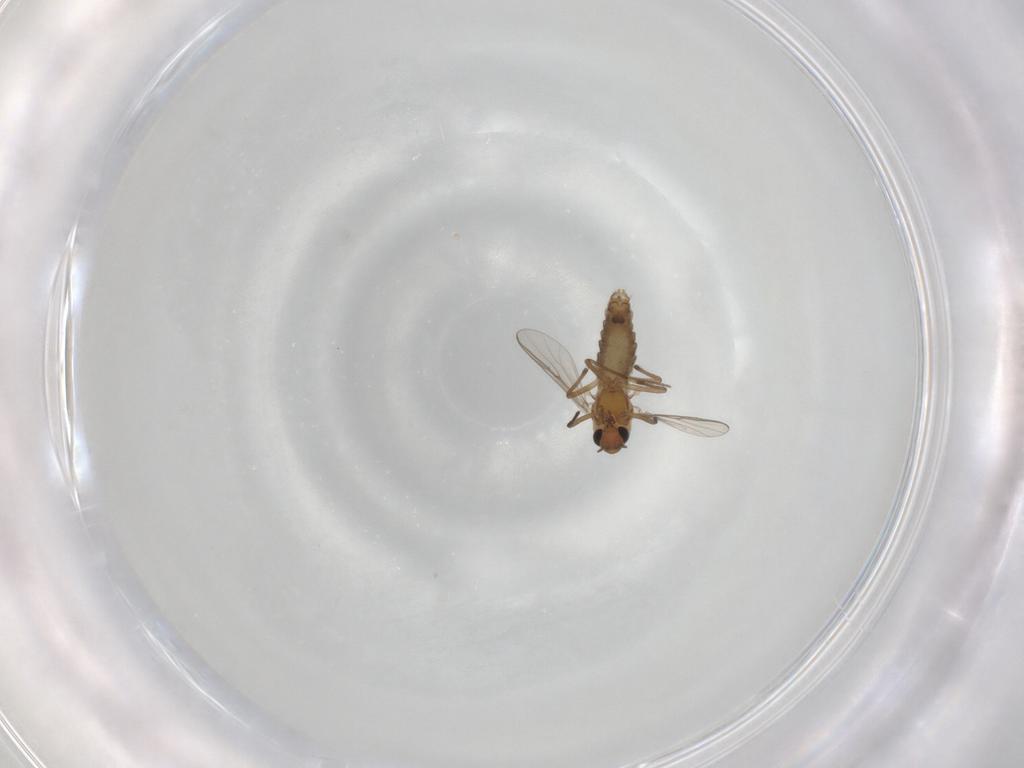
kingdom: Animalia
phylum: Arthropoda
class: Insecta
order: Diptera
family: Chironomidae
